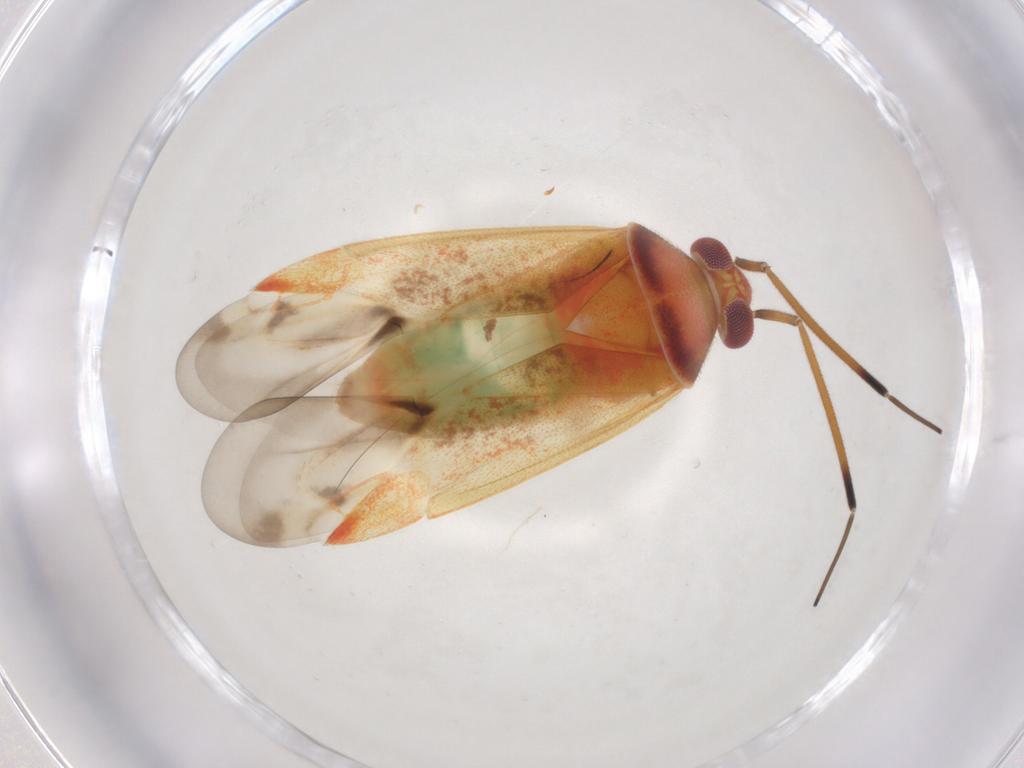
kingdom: Animalia
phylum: Arthropoda
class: Insecta
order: Hemiptera
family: Miridae
